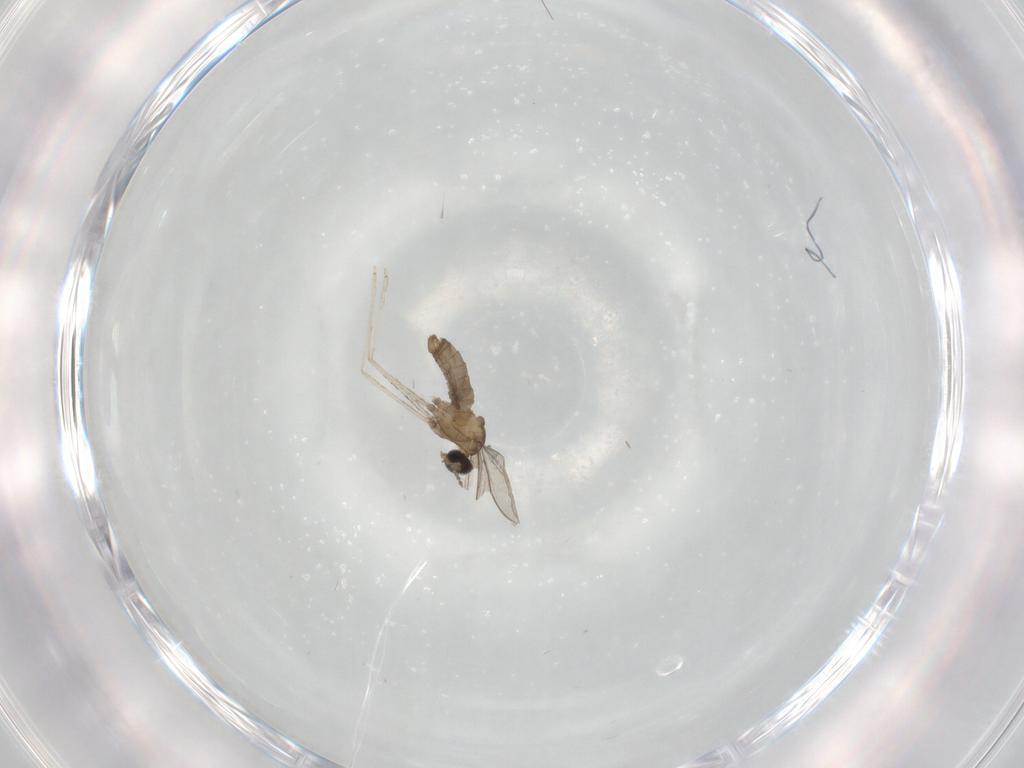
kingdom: Animalia
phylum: Arthropoda
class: Insecta
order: Diptera
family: Cecidomyiidae
